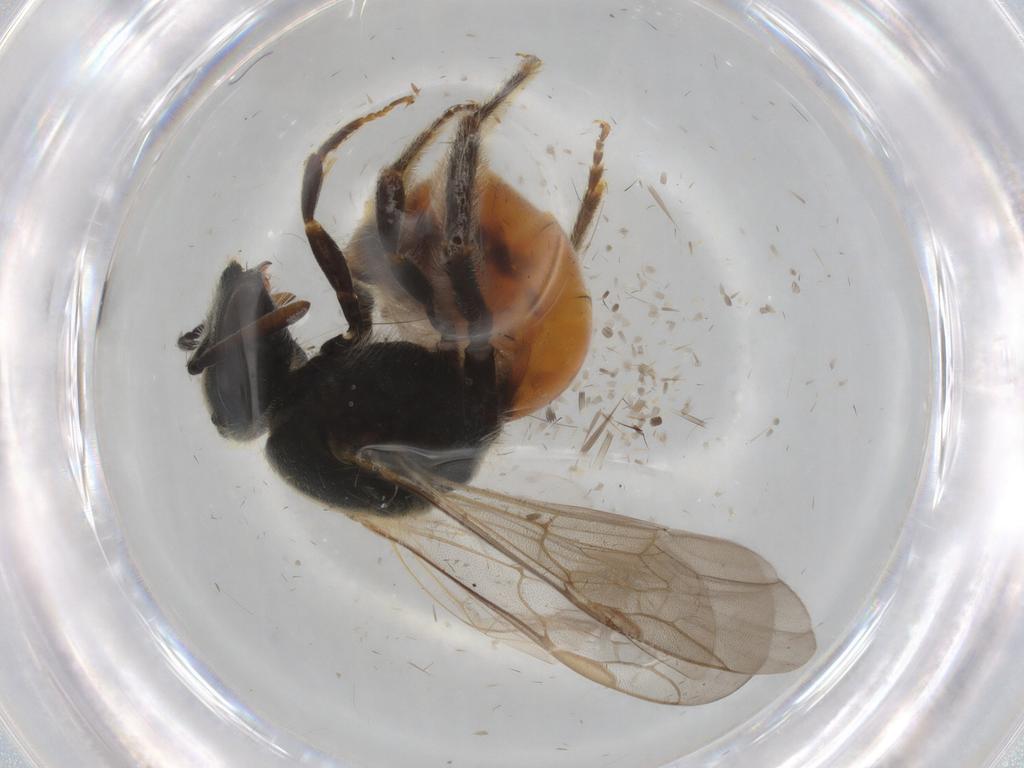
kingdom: Animalia
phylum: Arthropoda
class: Insecta
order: Hymenoptera
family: Halictidae
